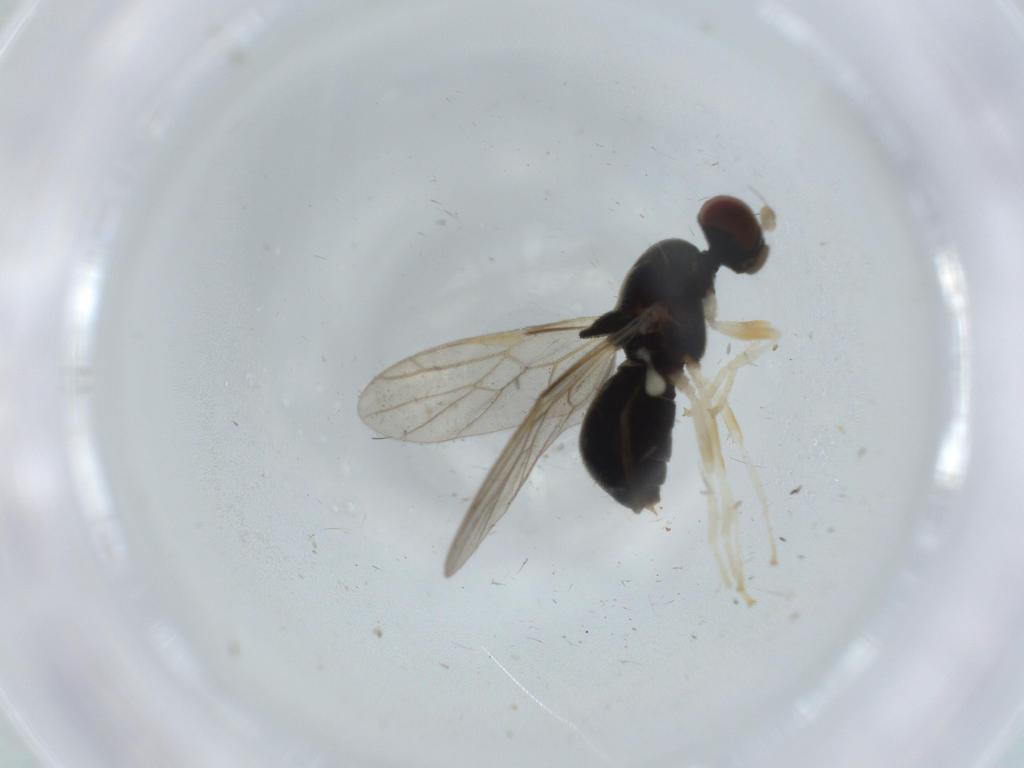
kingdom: Animalia
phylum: Arthropoda
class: Insecta
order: Diptera
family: Stratiomyidae
